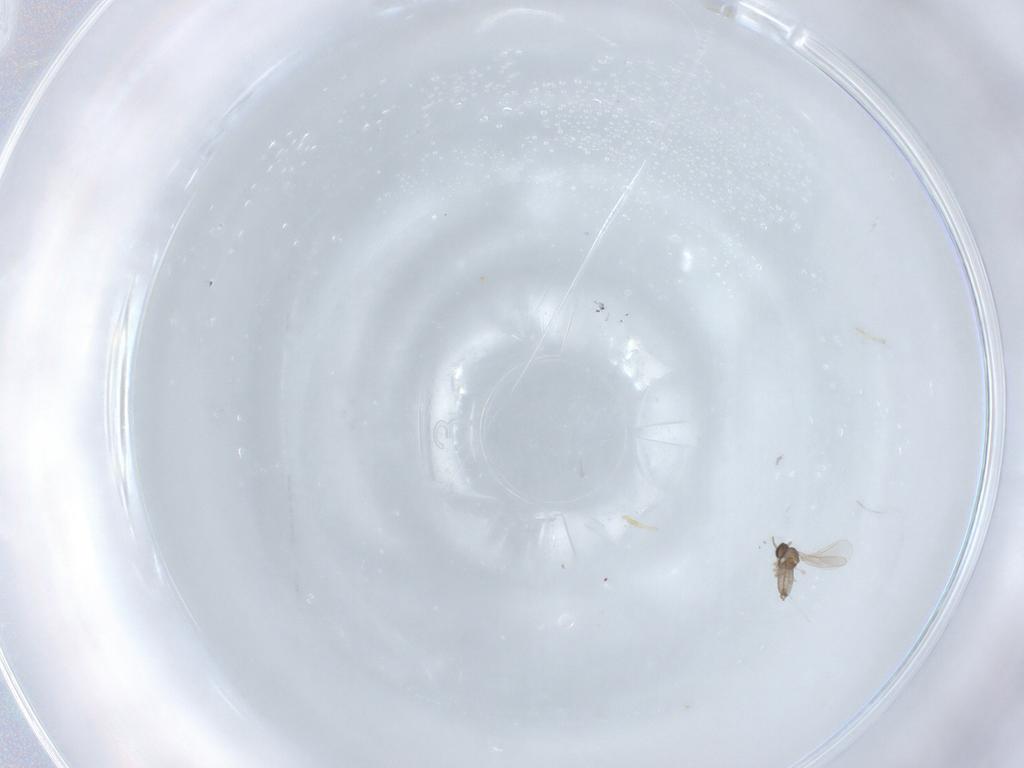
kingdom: Animalia
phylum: Arthropoda
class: Insecta
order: Diptera
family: Cecidomyiidae
